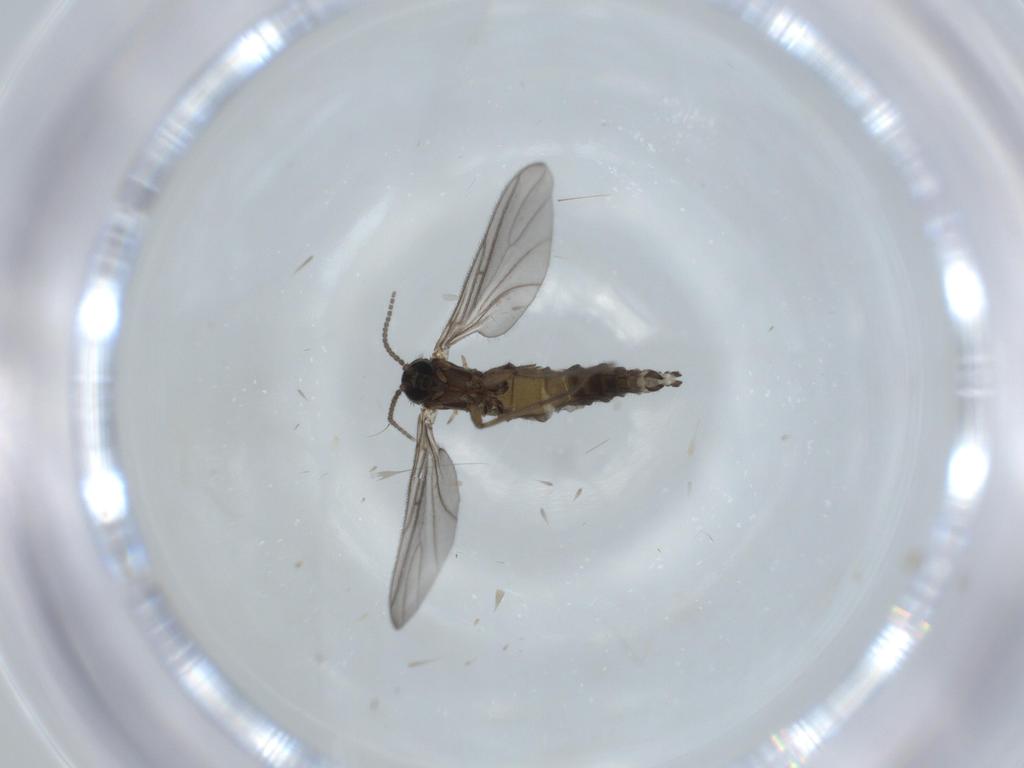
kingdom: Animalia
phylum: Arthropoda
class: Insecta
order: Diptera
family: Sciaridae
